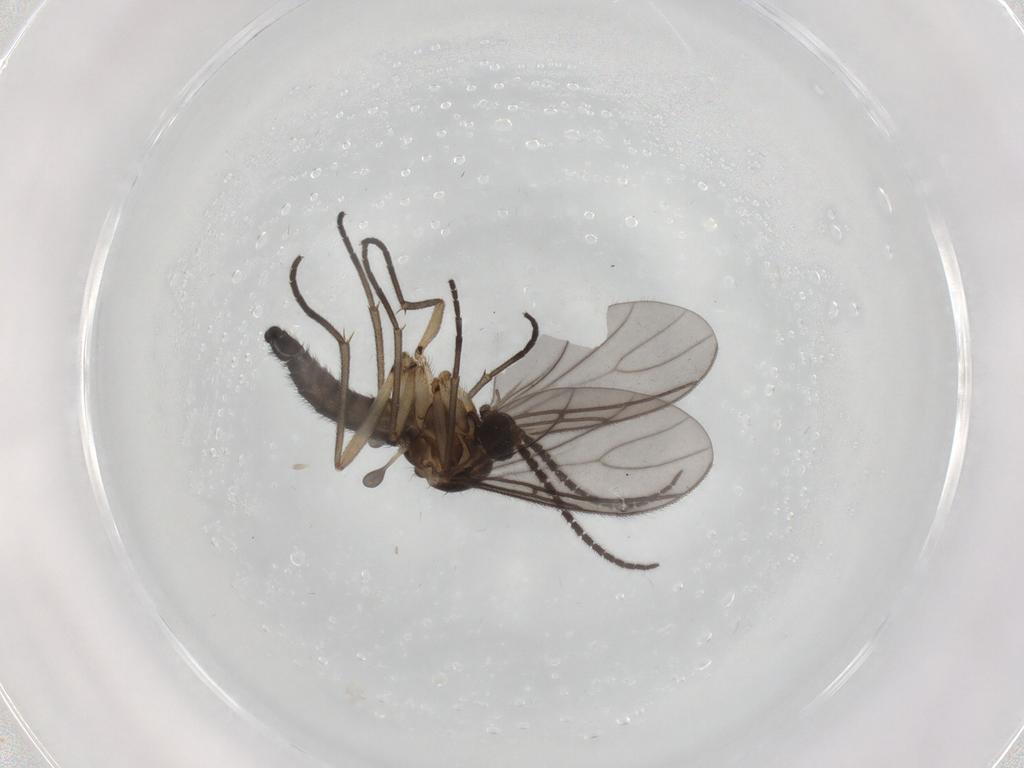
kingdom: Animalia
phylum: Arthropoda
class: Insecta
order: Diptera
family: Sciaridae
